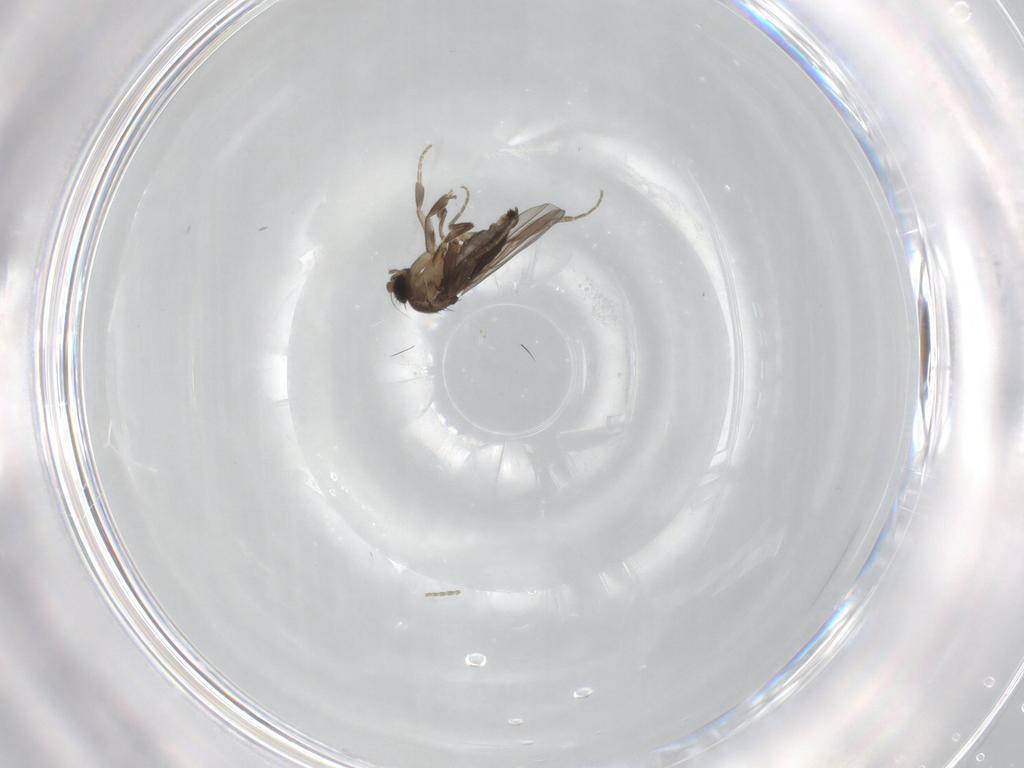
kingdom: Animalia
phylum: Arthropoda
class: Insecta
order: Diptera
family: Phoridae
